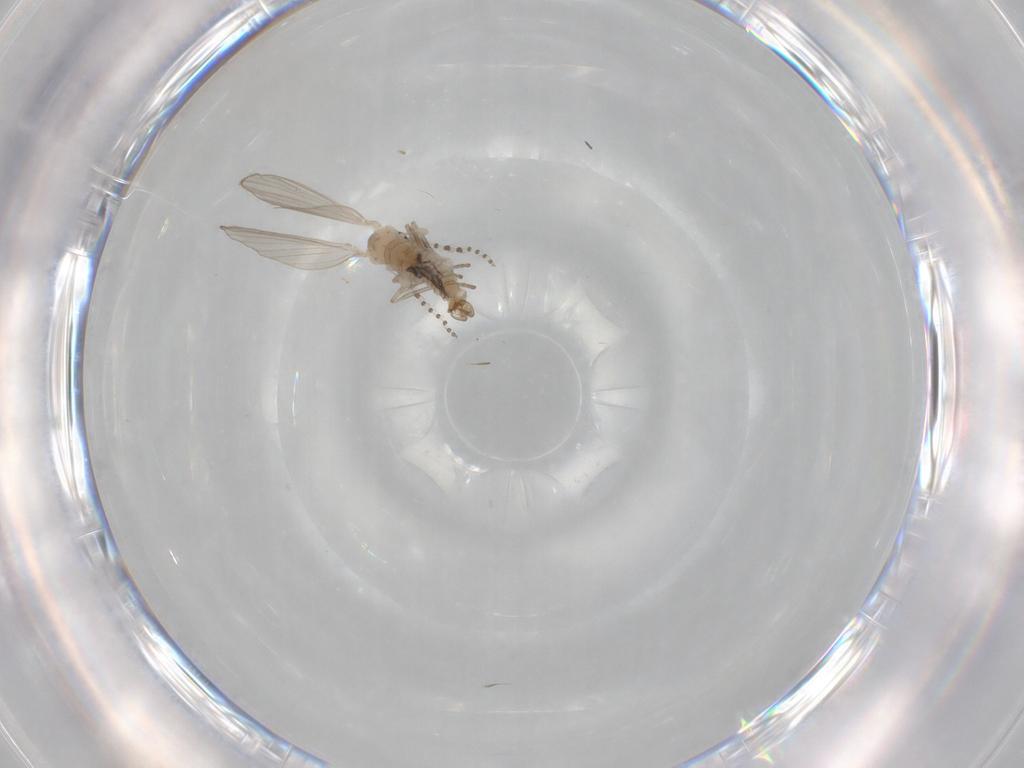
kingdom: Animalia
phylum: Arthropoda
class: Insecta
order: Diptera
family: Psychodidae
